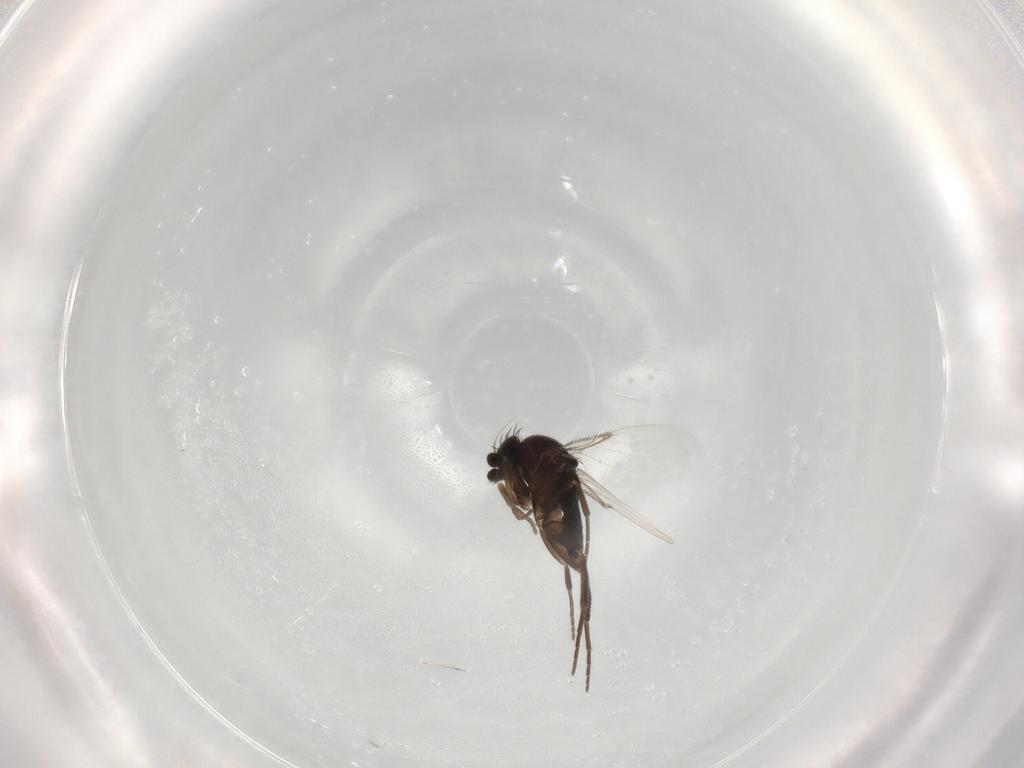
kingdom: Animalia
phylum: Arthropoda
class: Insecta
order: Diptera
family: Phoridae
